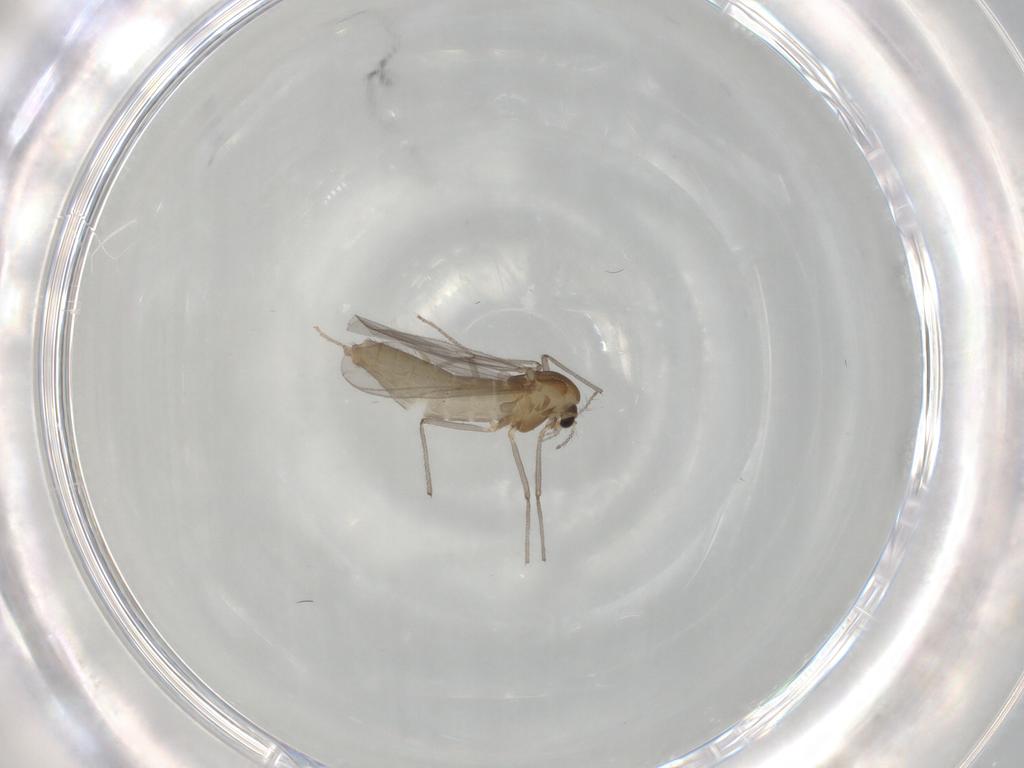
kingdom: Animalia
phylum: Arthropoda
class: Insecta
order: Diptera
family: Chironomidae
